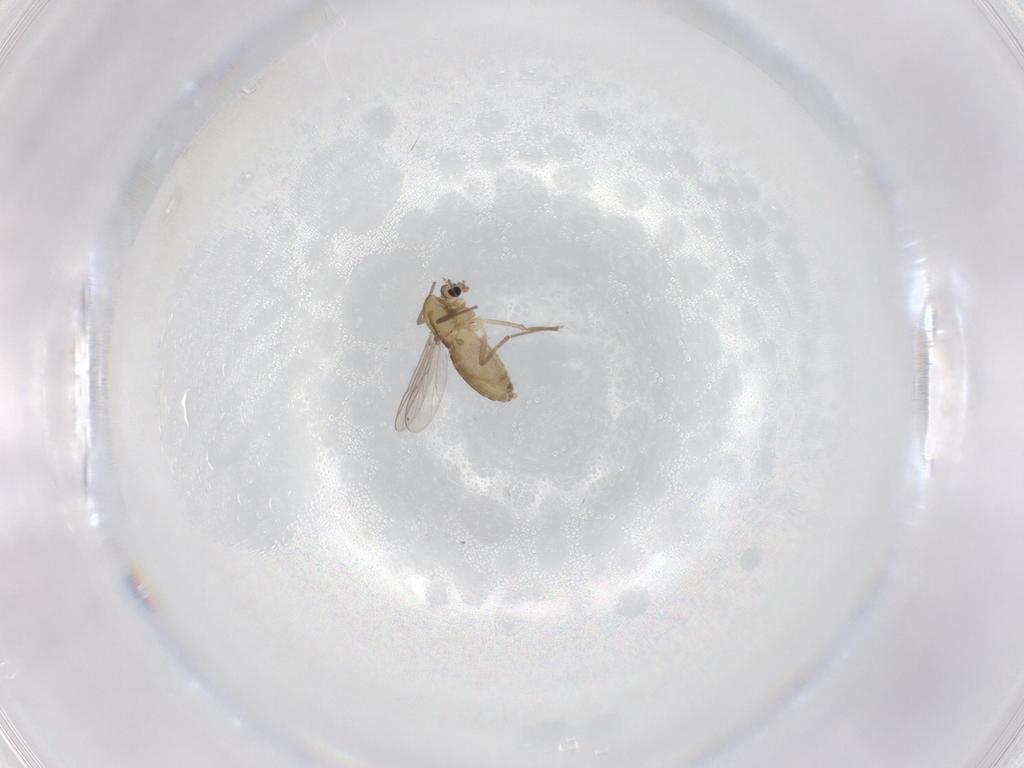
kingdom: Animalia
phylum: Arthropoda
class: Insecta
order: Diptera
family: Chironomidae
